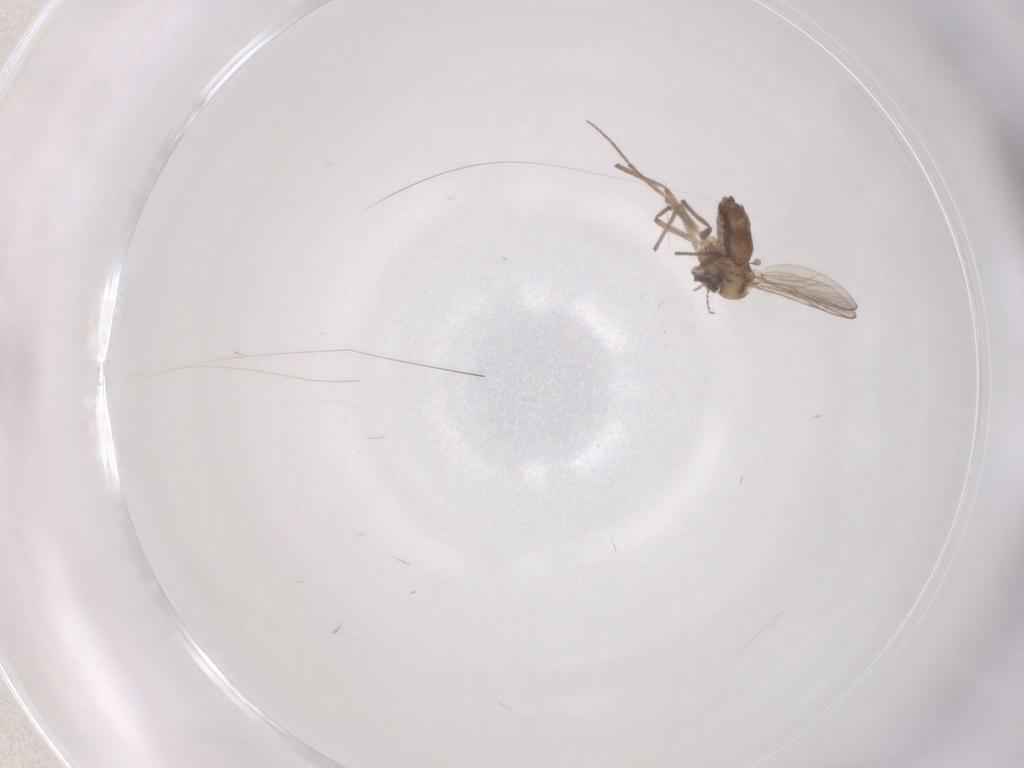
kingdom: Animalia
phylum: Arthropoda
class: Insecta
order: Diptera
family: Chironomidae
